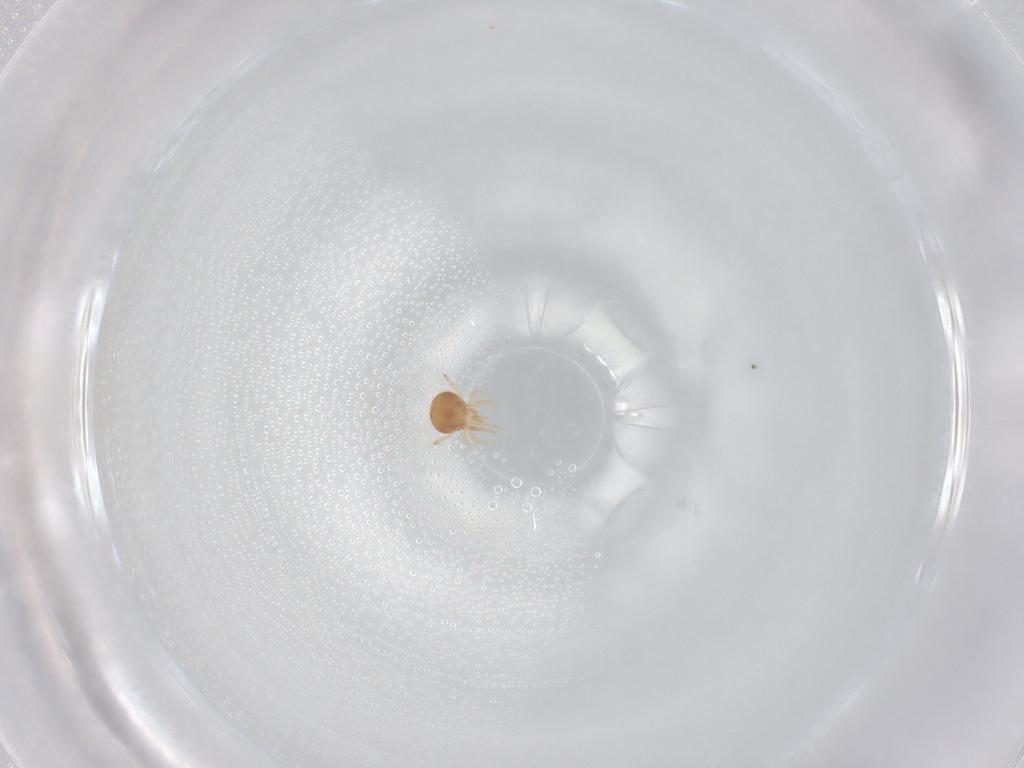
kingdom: Animalia
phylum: Arthropoda
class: Arachnida
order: Mesostigmata
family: Phytoseiidae
